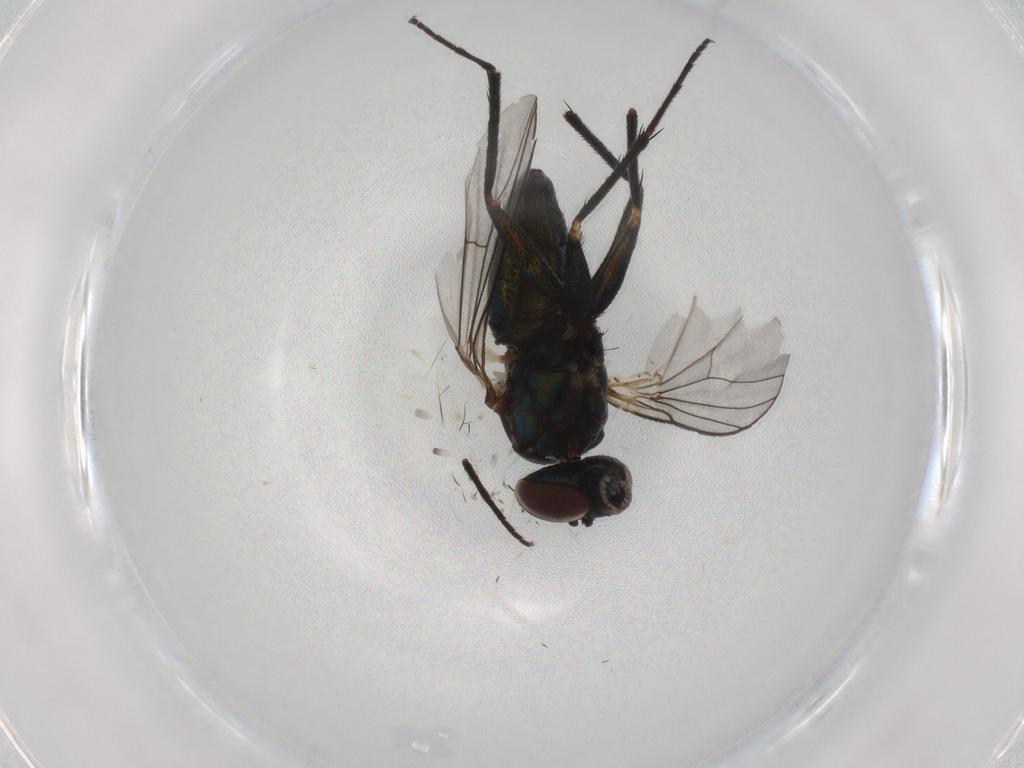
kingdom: Animalia
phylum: Arthropoda
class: Insecta
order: Diptera
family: Dolichopodidae
